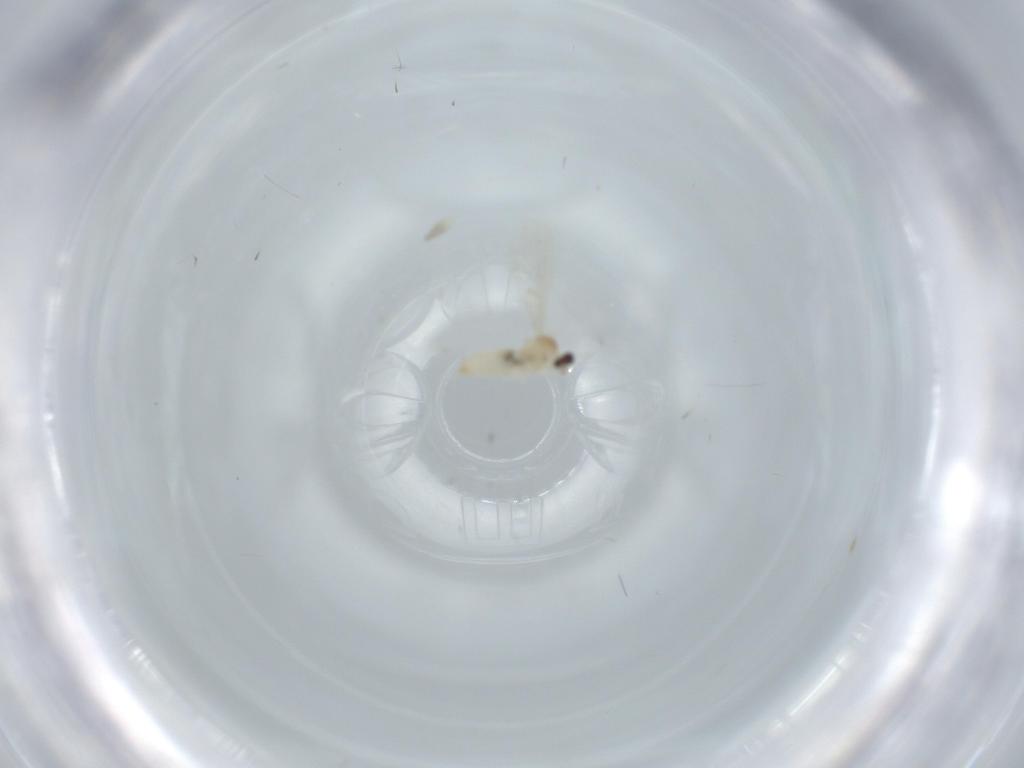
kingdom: Animalia
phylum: Arthropoda
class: Insecta
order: Diptera
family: Cecidomyiidae
